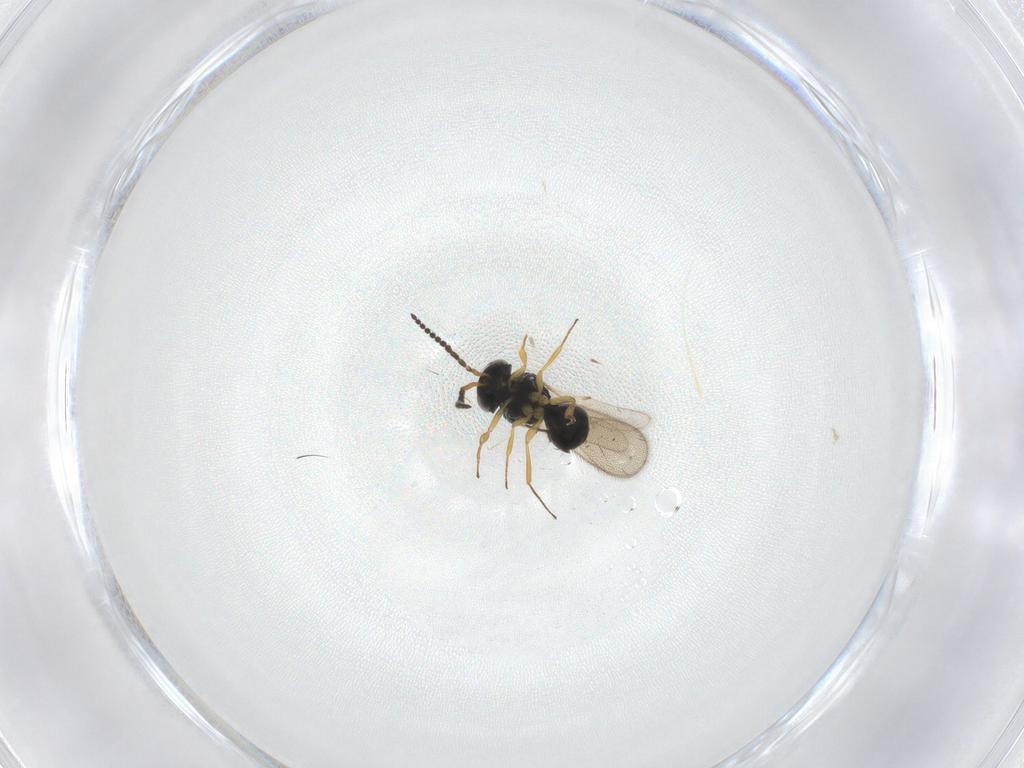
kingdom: Animalia
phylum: Arthropoda
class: Insecta
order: Hymenoptera
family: Scelionidae
